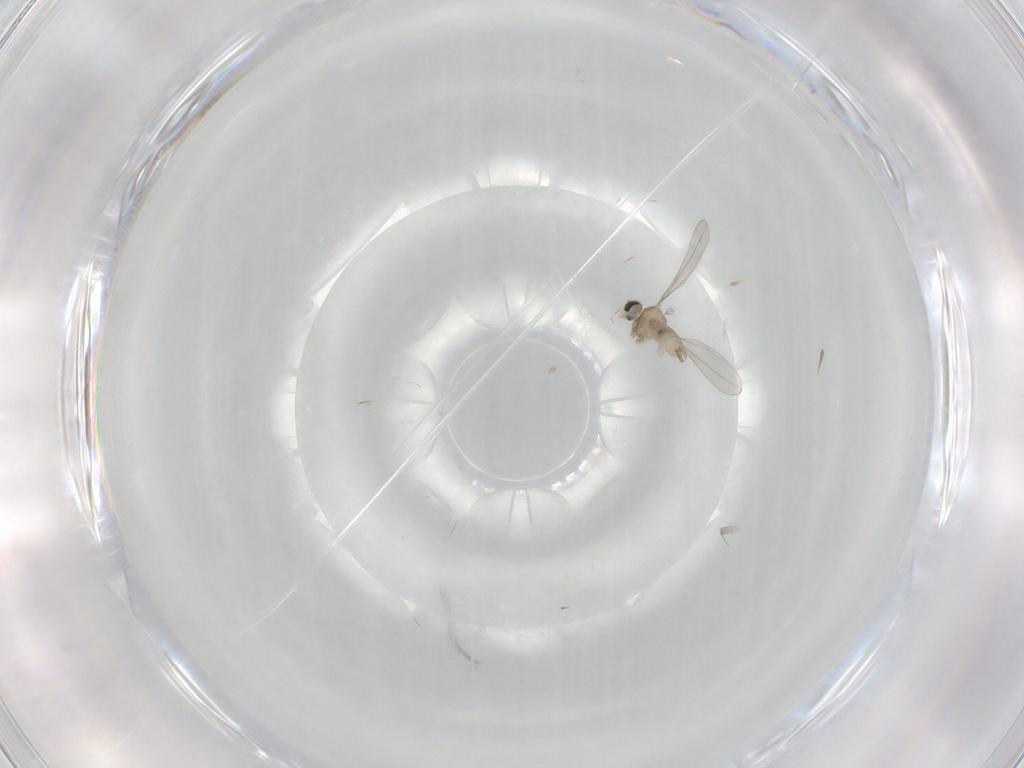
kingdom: Animalia
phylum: Arthropoda
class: Insecta
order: Diptera
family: Cecidomyiidae
